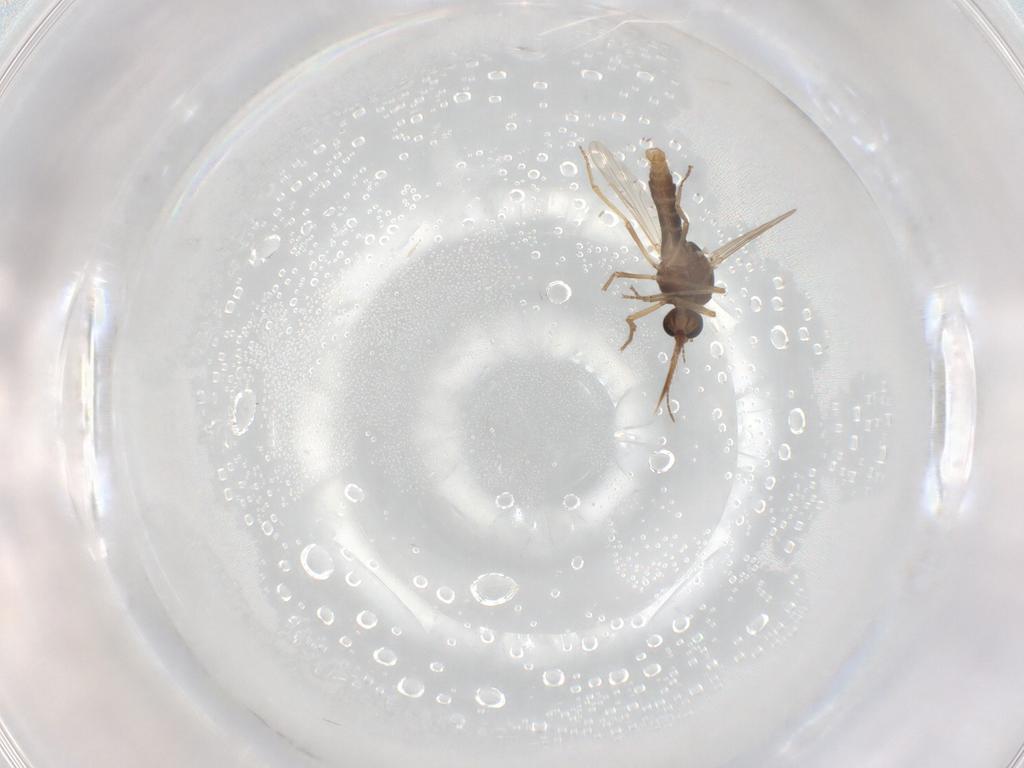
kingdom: Animalia
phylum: Arthropoda
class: Insecta
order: Diptera
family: Ceratopogonidae
